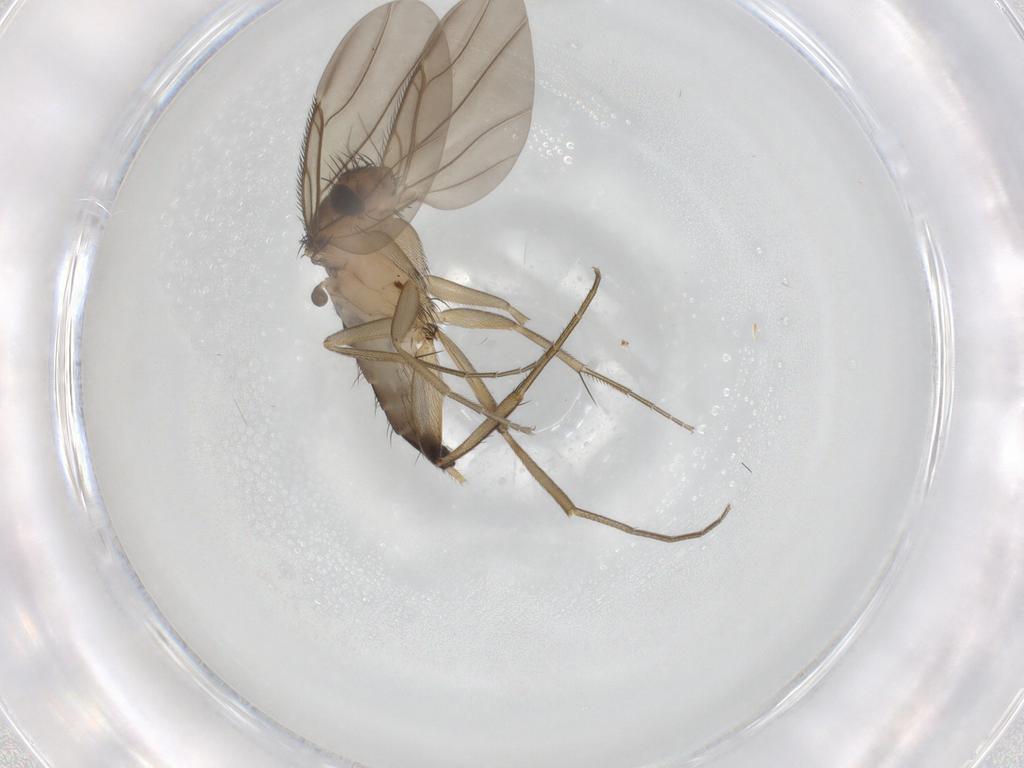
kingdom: Animalia
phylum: Arthropoda
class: Insecta
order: Diptera
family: Phoridae
